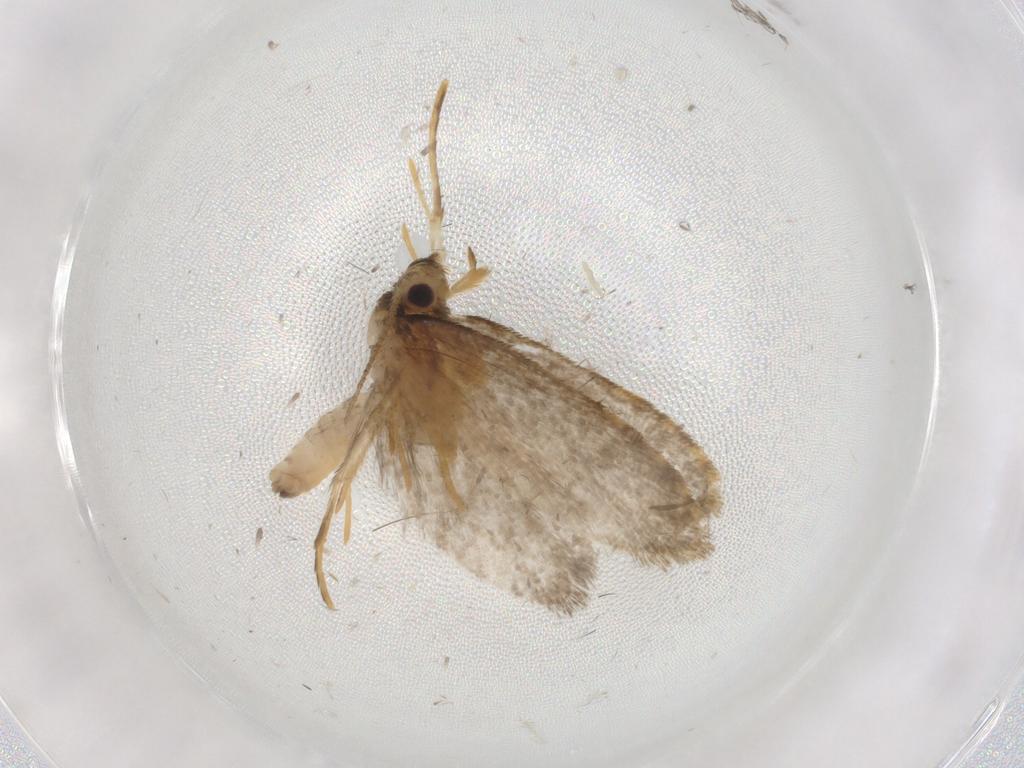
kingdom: Animalia
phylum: Arthropoda
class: Insecta
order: Lepidoptera
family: Psychidae
